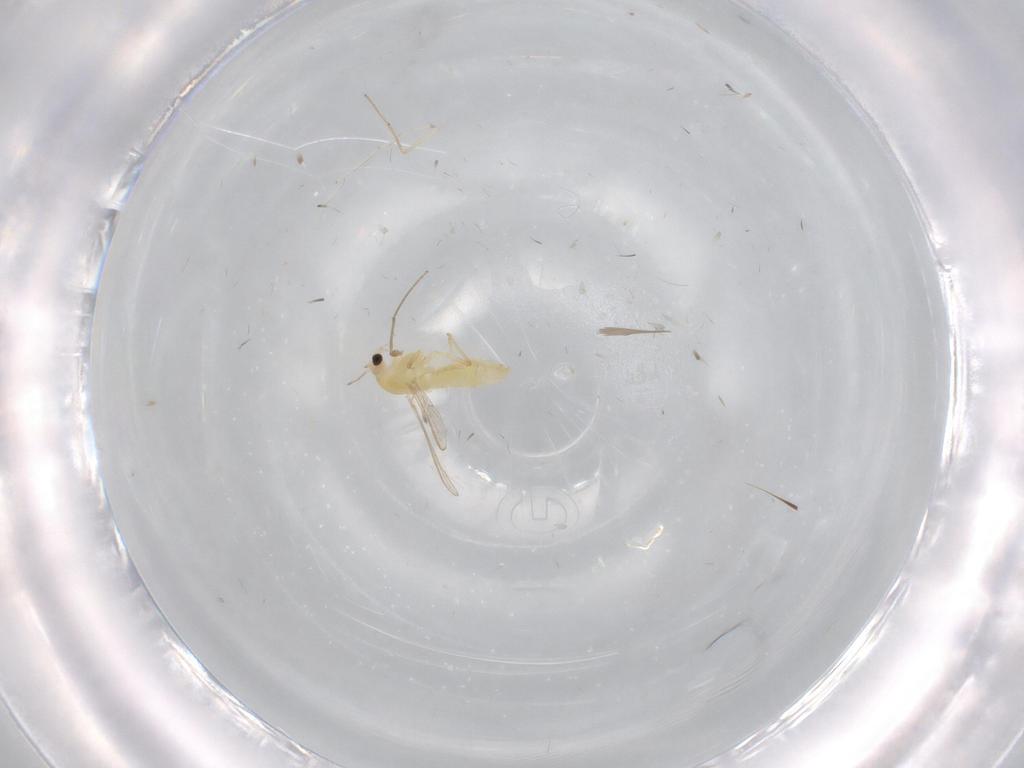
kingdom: Animalia
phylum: Arthropoda
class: Insecta
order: Diptera
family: Chironomidae
